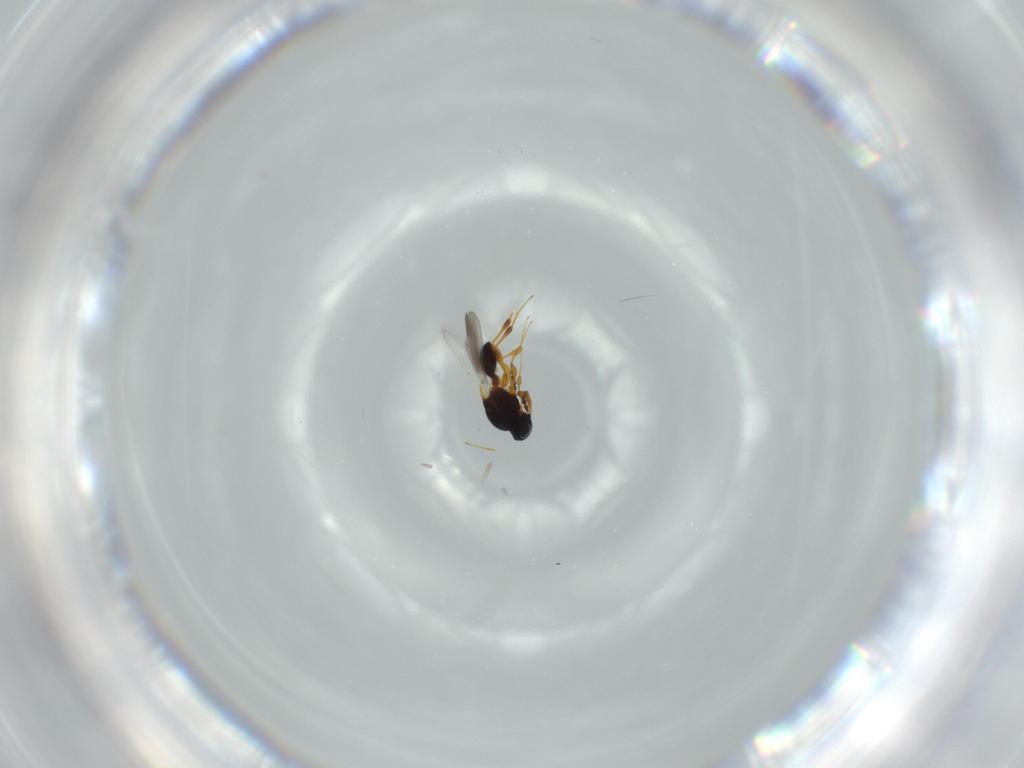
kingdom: Animalia
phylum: Arthropoda
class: Insecta
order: Hymenoptera
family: Platygastridae
